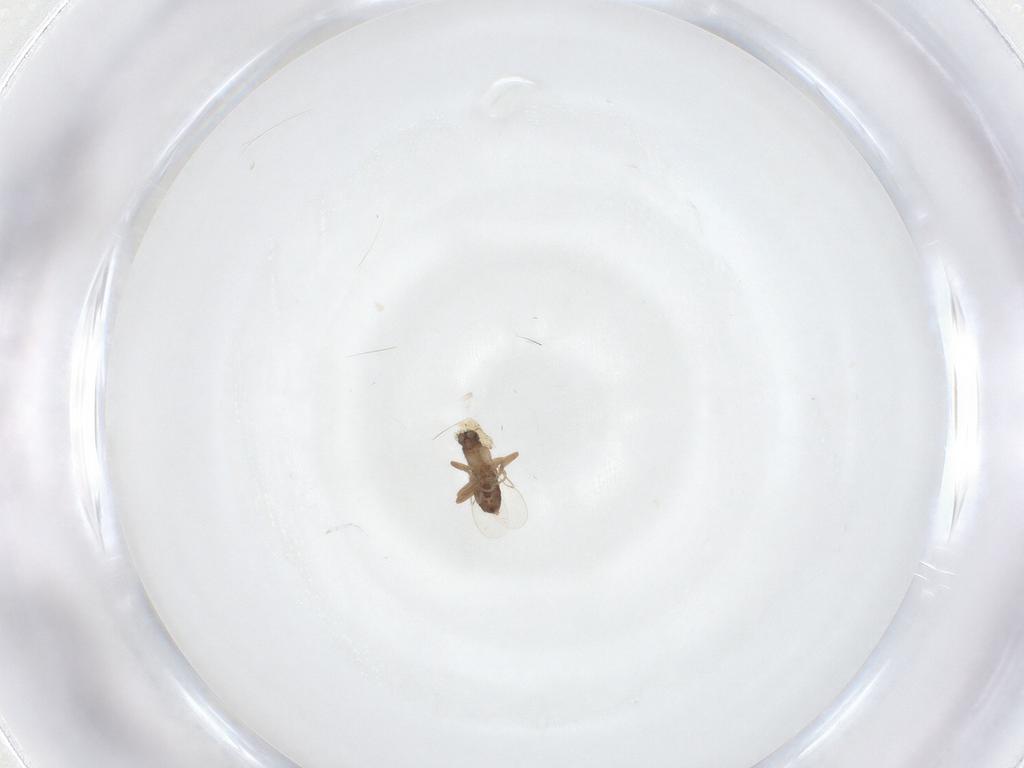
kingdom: Animalia
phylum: Arthropoda
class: Insecta
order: Diptera
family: Phoridae
